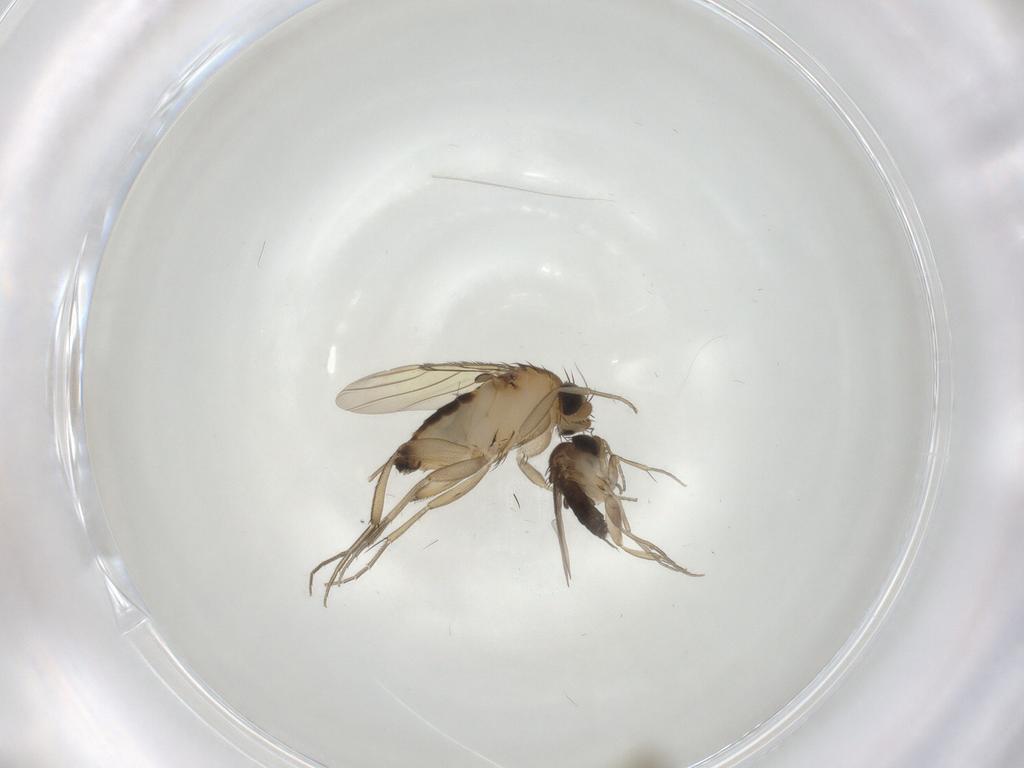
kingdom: Animalia
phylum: Arthropoda
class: Insecta
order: Diptera
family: Phoridae
